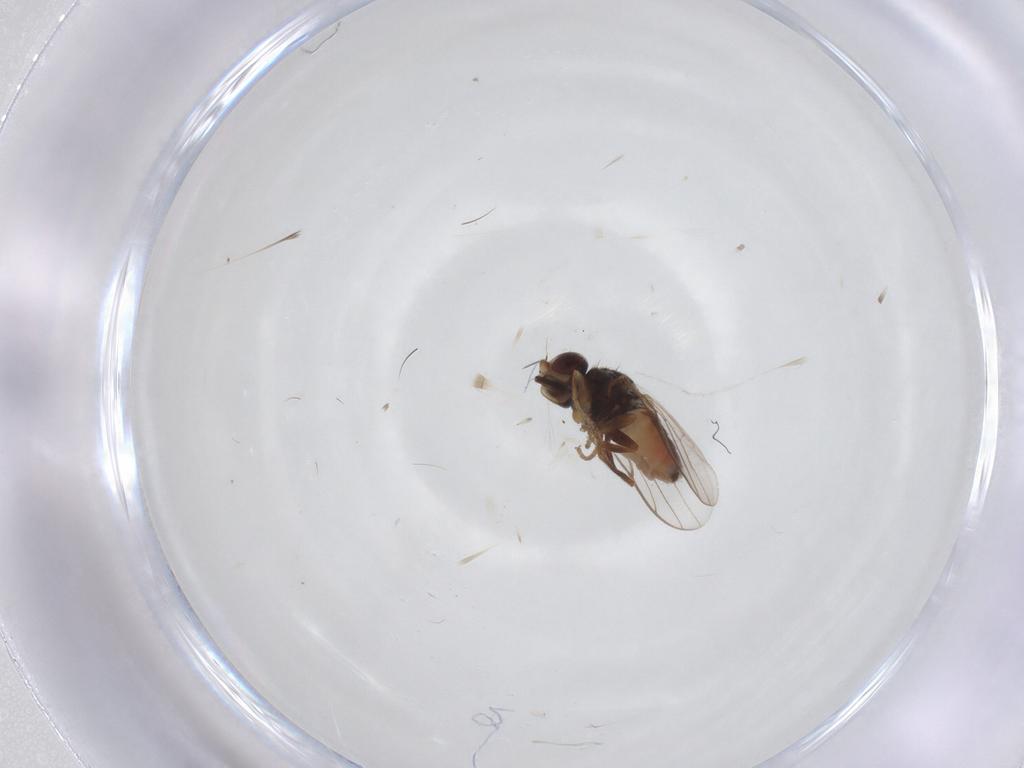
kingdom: Animalia
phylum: Arthropoda
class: Insecta
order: Diptera
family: Chloropidae
